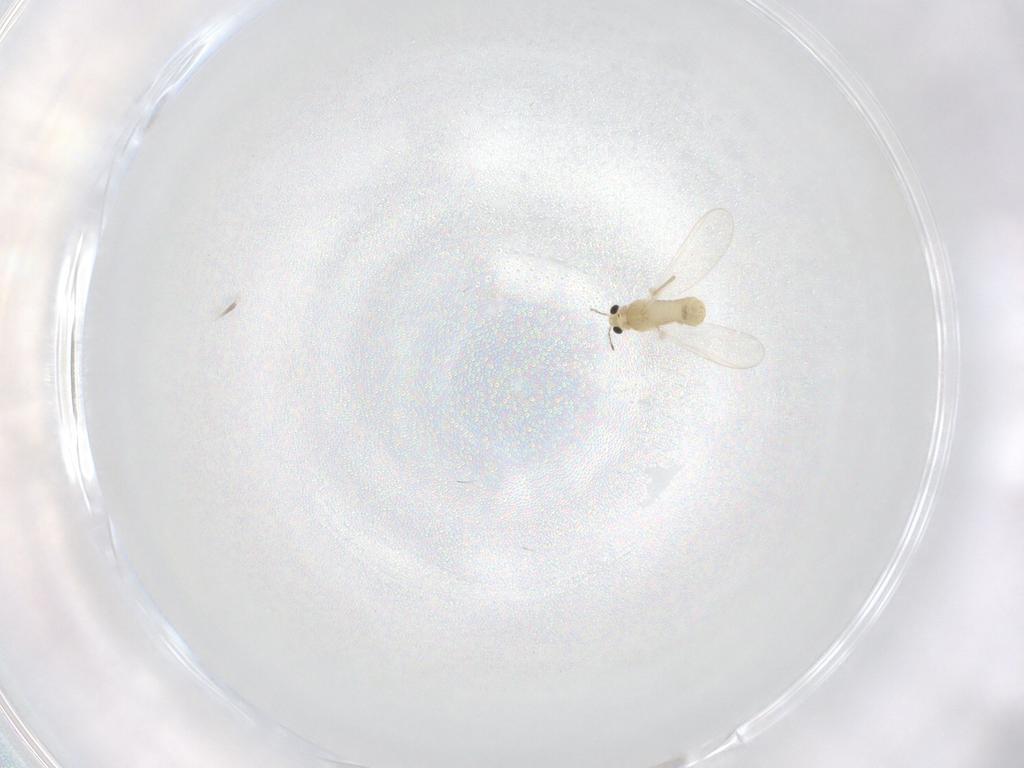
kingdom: Animalia
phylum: Arthropoda
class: Insecta
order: Diptera
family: Chironomidae
